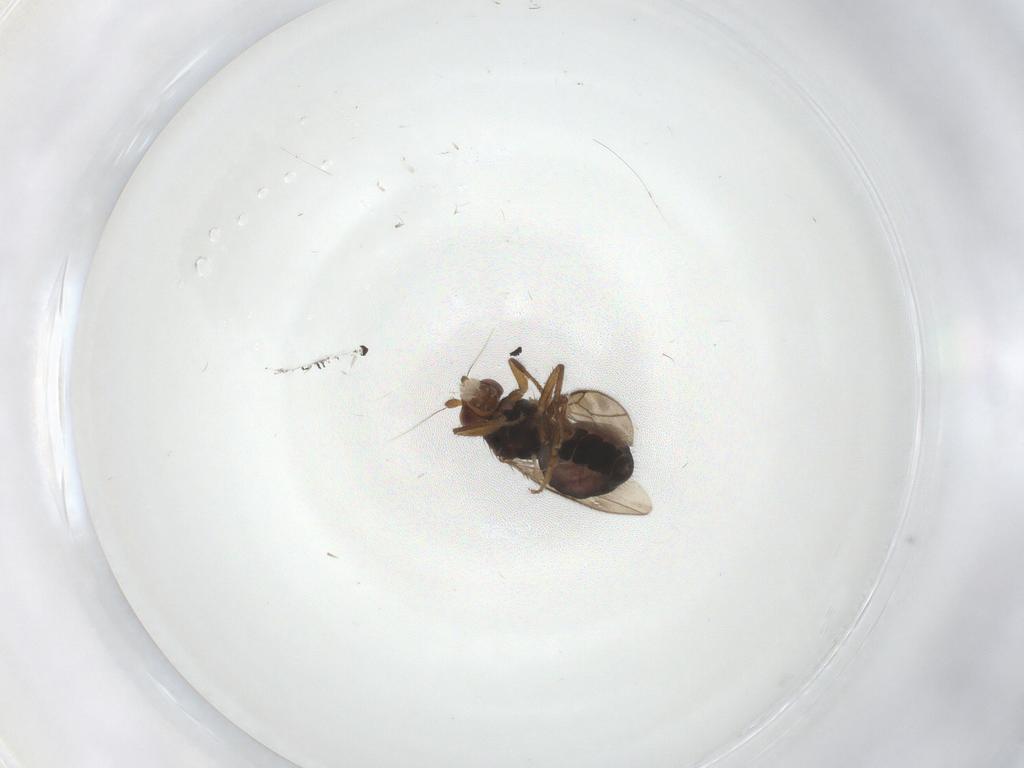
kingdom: Animalia
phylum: Arthropoda
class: Insecta
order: Diptera
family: Sphaeroceridae
